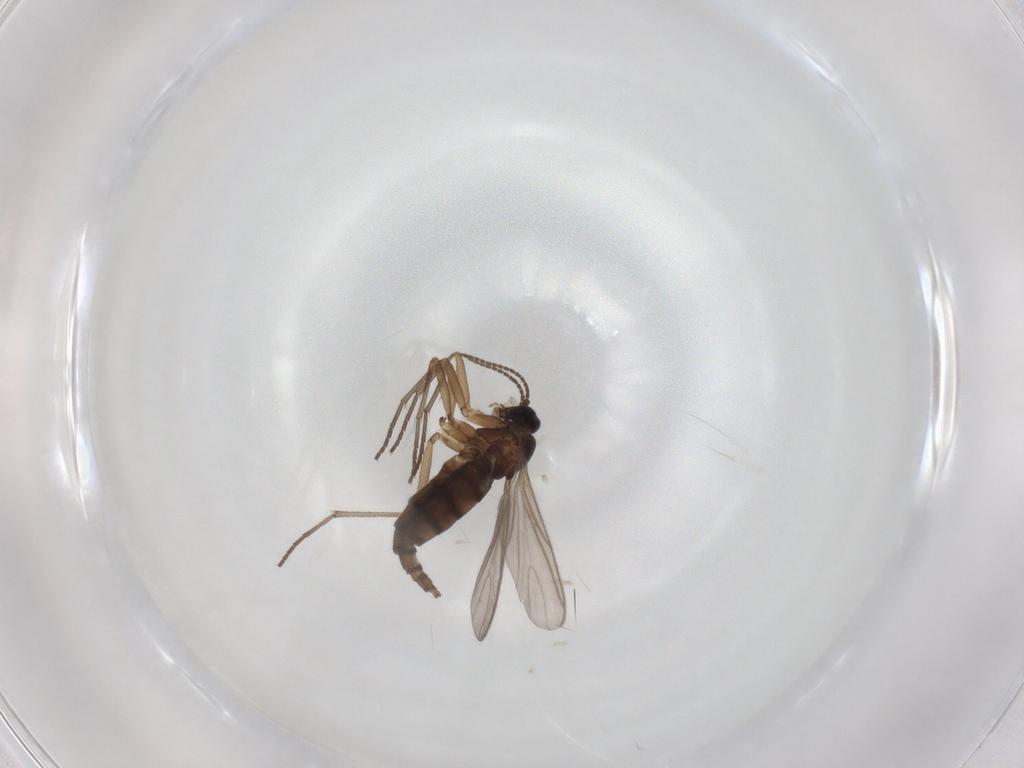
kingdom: Animalia
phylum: Arthropoda
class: Insecta
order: Diptera
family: Sciaridae
